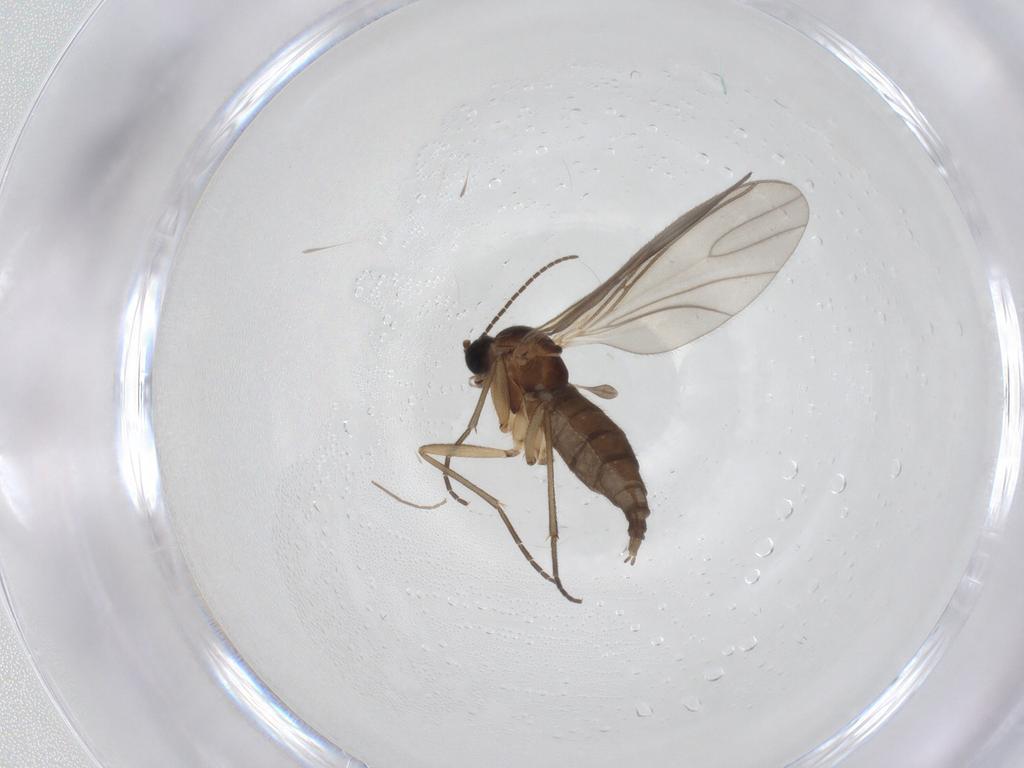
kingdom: Animalia
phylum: Arthropoda
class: Insecta
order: Diptera
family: Sciaridae
